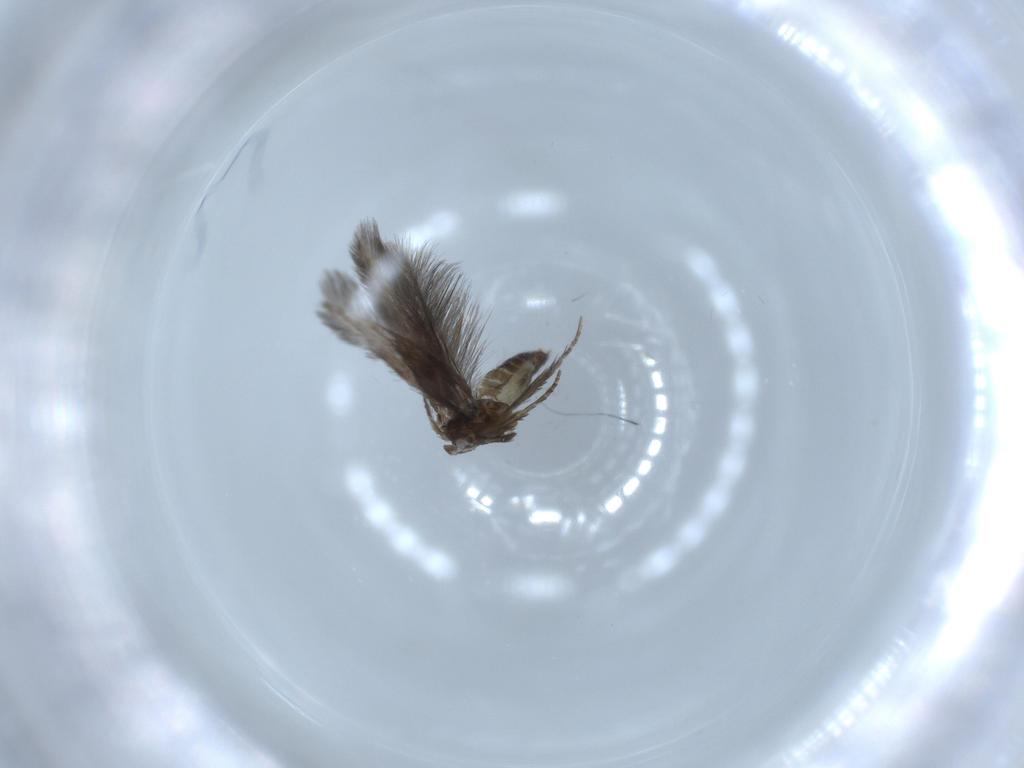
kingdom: Animalia
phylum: Arthropoda
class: Insecta
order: Trichoptera
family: Hydroptilidae
